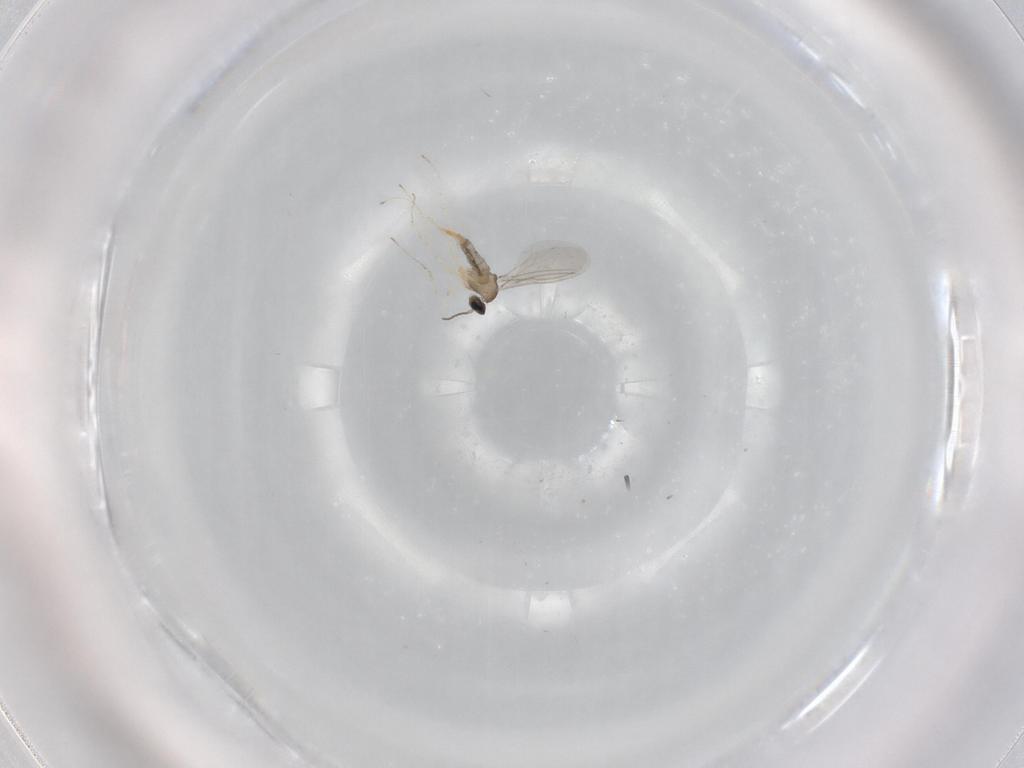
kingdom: Animalia
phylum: Arthropoda
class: Insecta
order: Diptera
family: Cecidomyiidae
